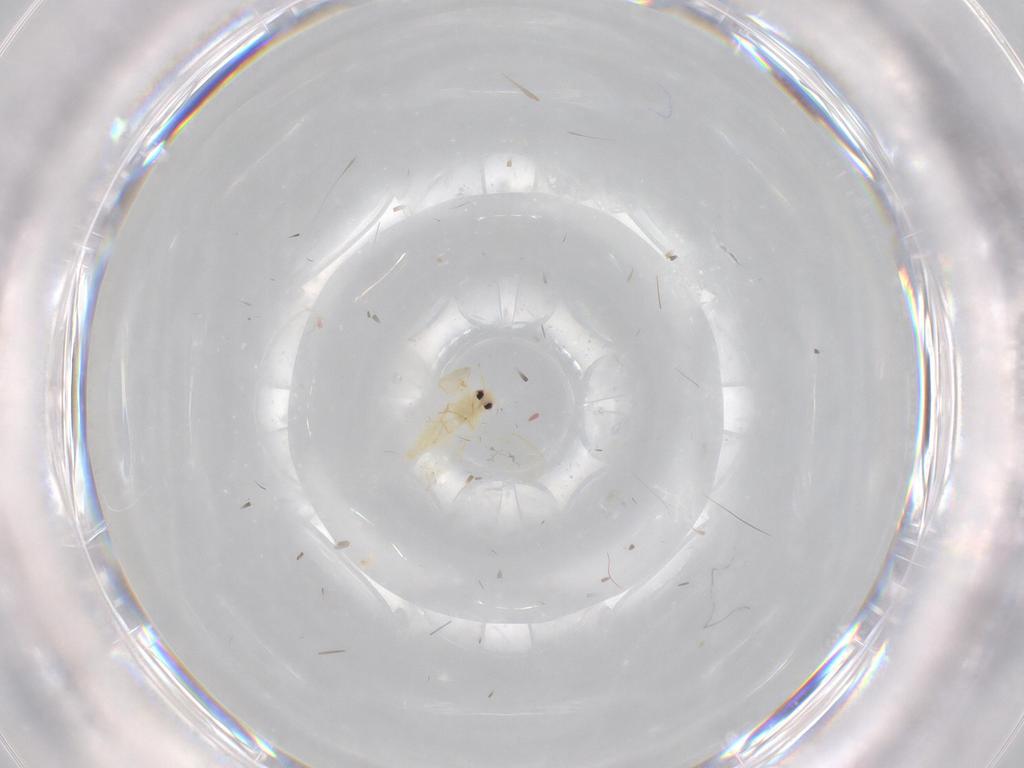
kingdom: Animalia
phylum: Arthropoda
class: Insecta
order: Hemiptera
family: Aleyrodidae
